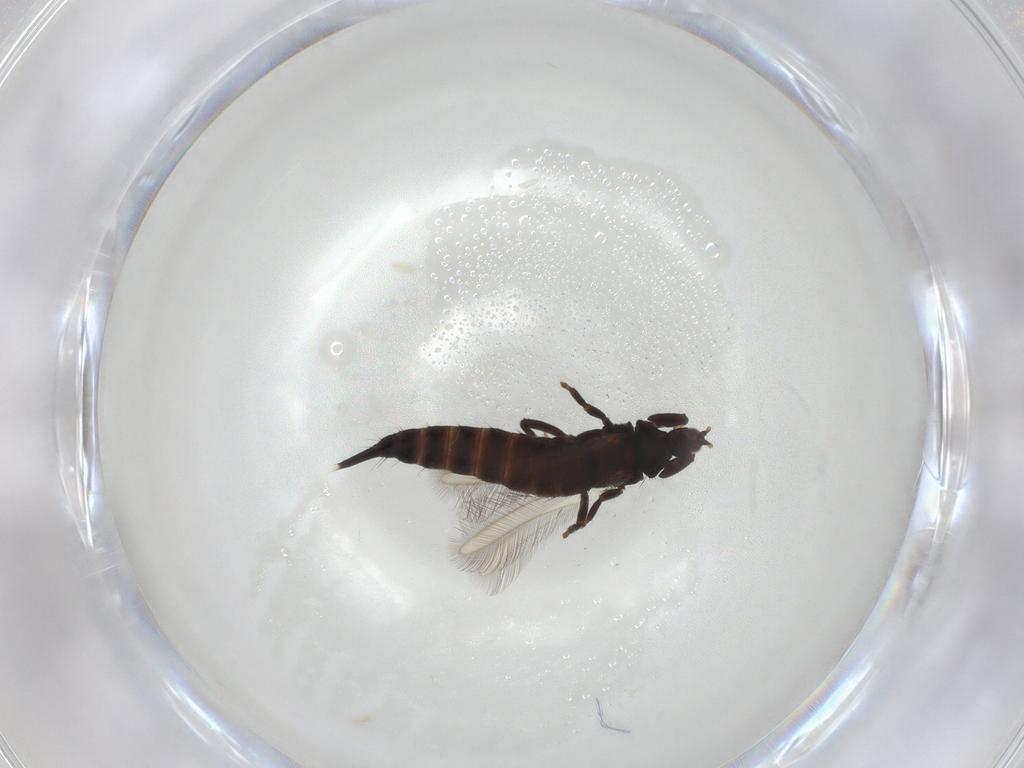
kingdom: Animalia
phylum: Arthropoda
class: Insecta
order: Thysanoptera
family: Phlaeothripidae
